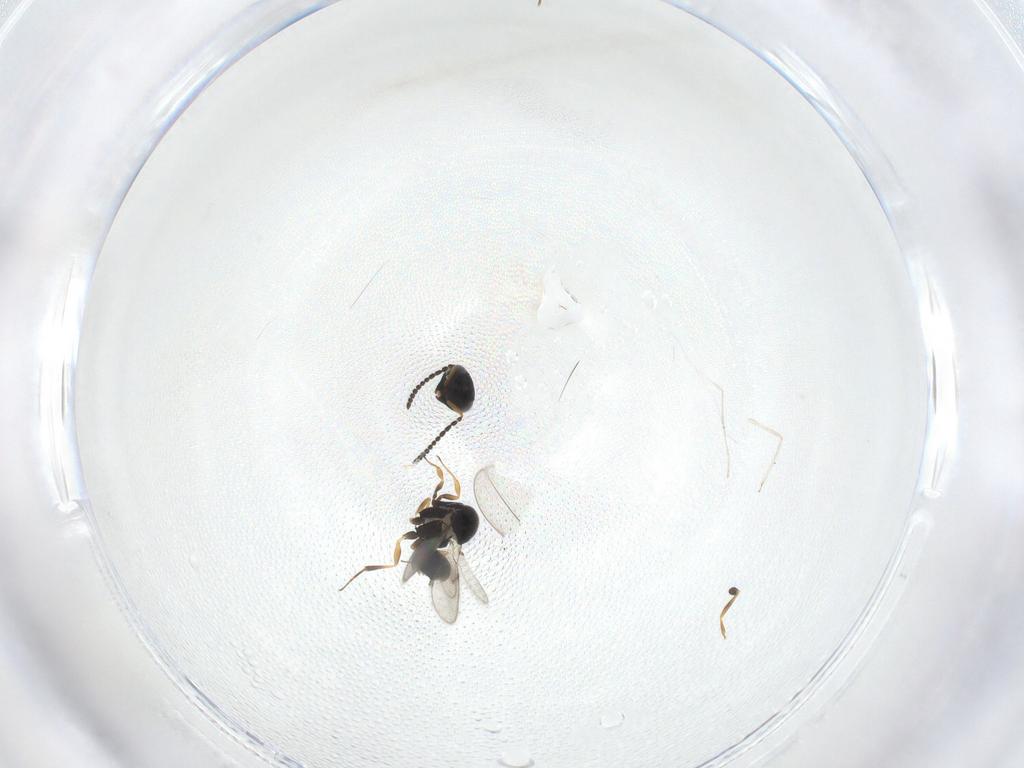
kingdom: Animalia
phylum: Arthropoda
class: Insecta
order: Hymenoptera
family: Scelionidae
